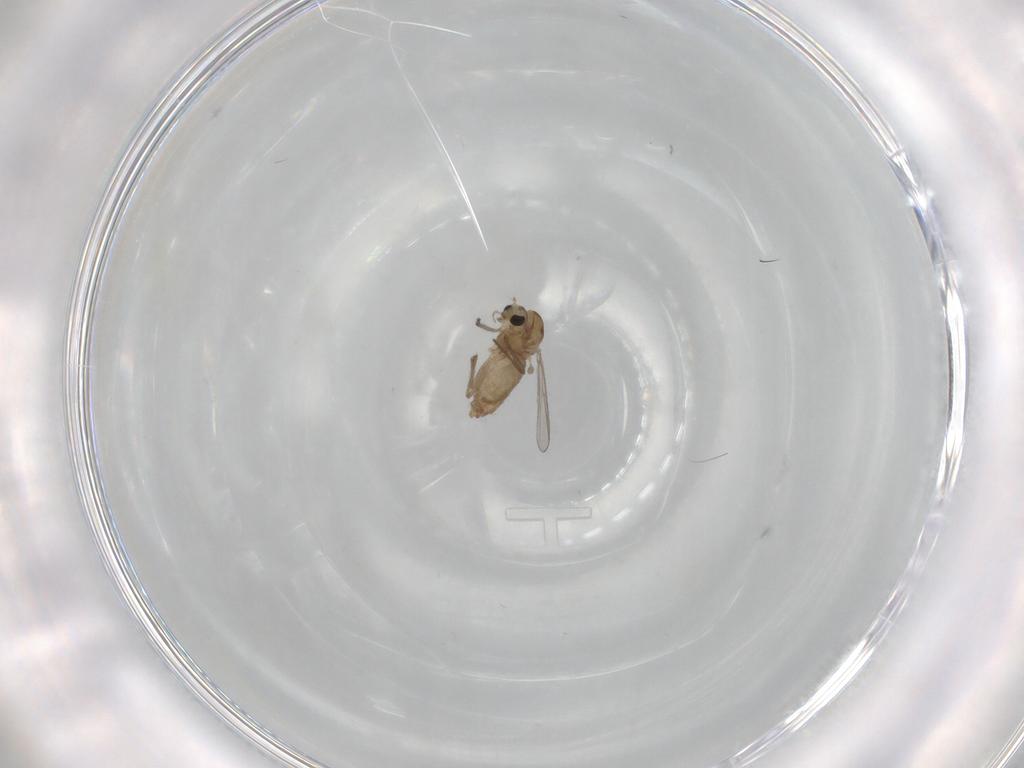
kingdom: Animalia
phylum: Arthropoda
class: Insecta
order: Diptera
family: Chironomidae
